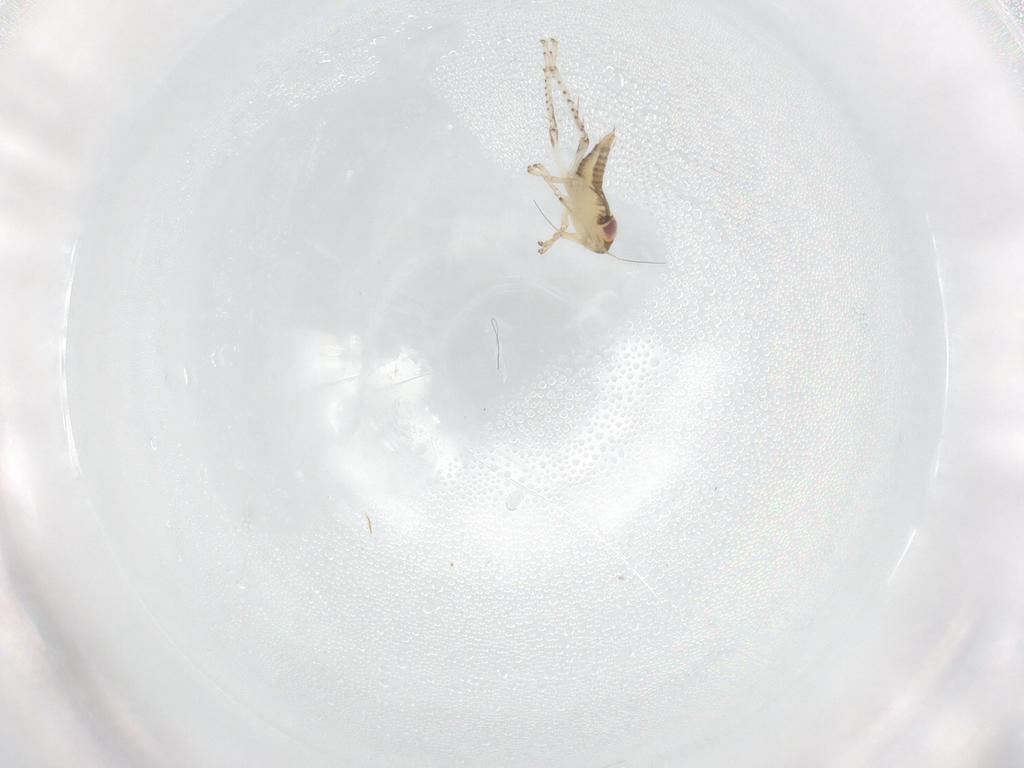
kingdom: Animalia
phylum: Arthropoda
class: Insecta
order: Hemiptera
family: Cicadellidae
